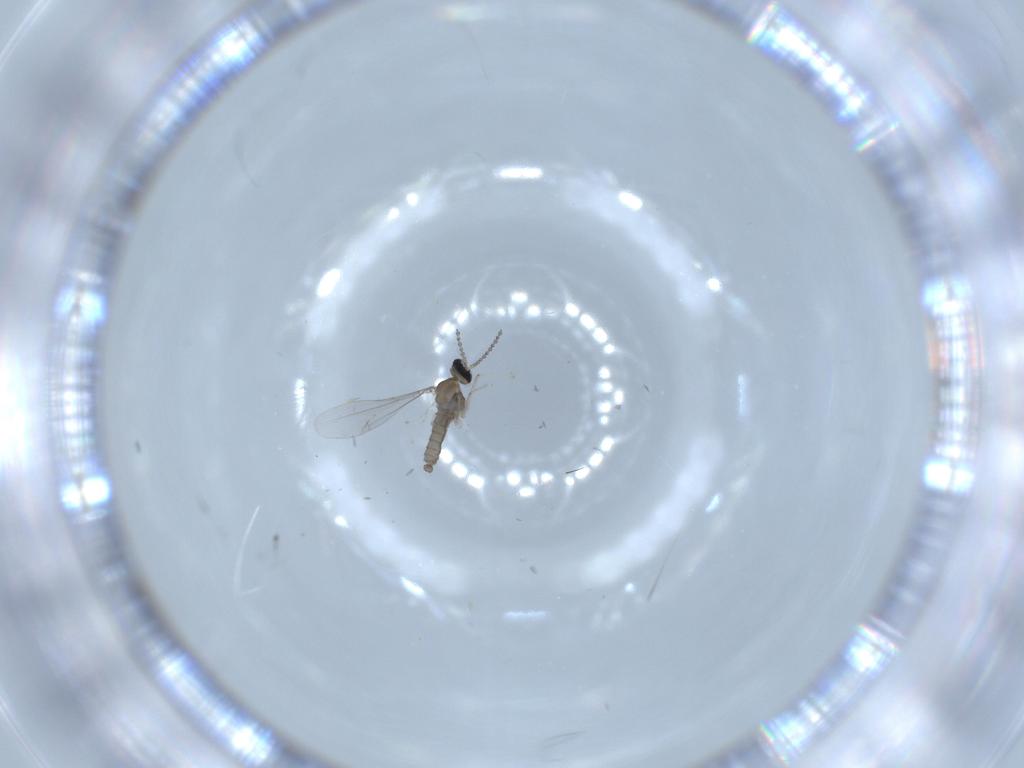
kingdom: Animalia
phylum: Arthropoda
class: Insecta
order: Diptera
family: Cecidomyiidae
